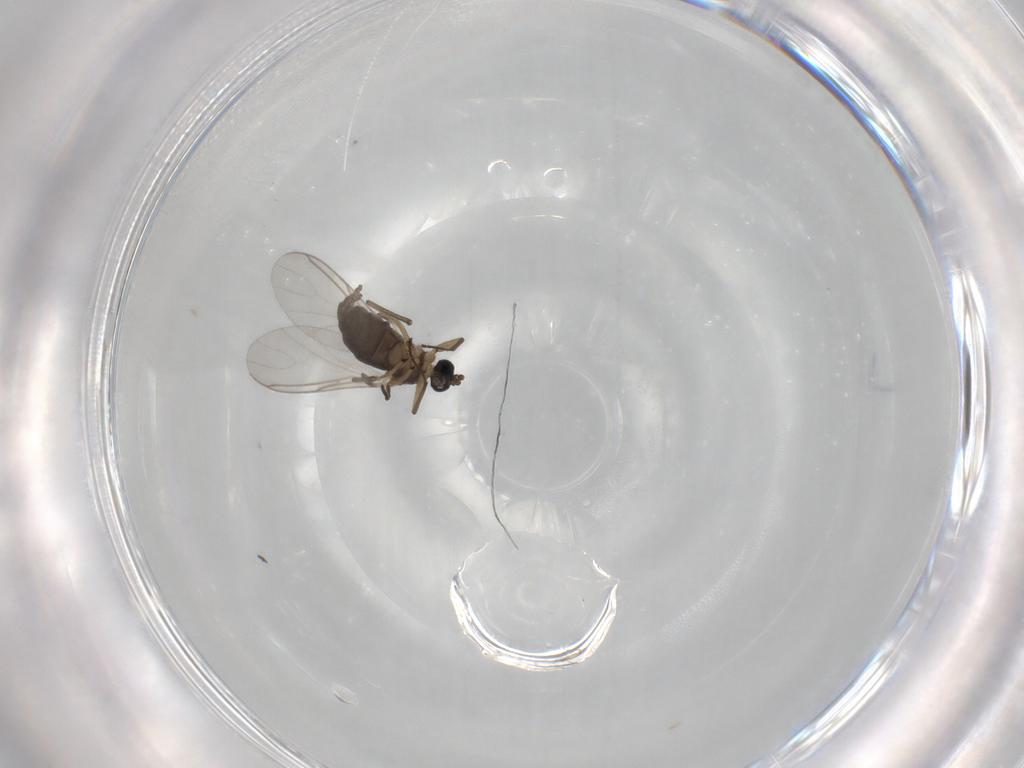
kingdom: Animalia
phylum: Arthropoda
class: Insecta
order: Diptera
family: Sciaridae
